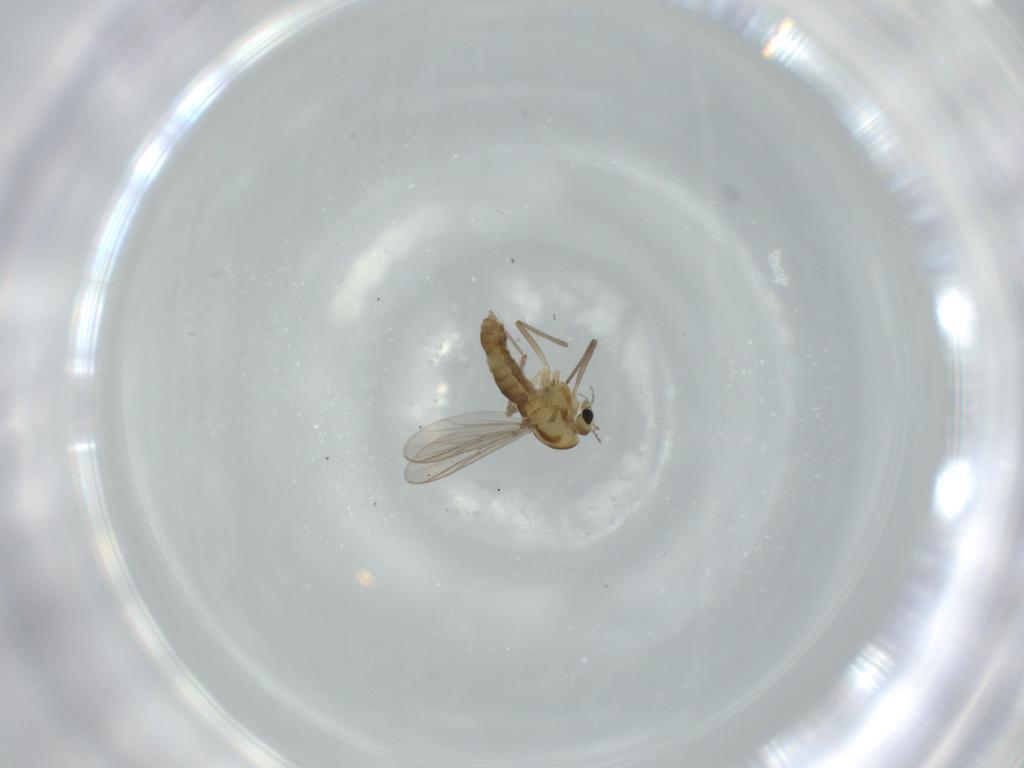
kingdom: Animalia
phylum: Arthropoda
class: Insecta
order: Diptera
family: Chironomidae
